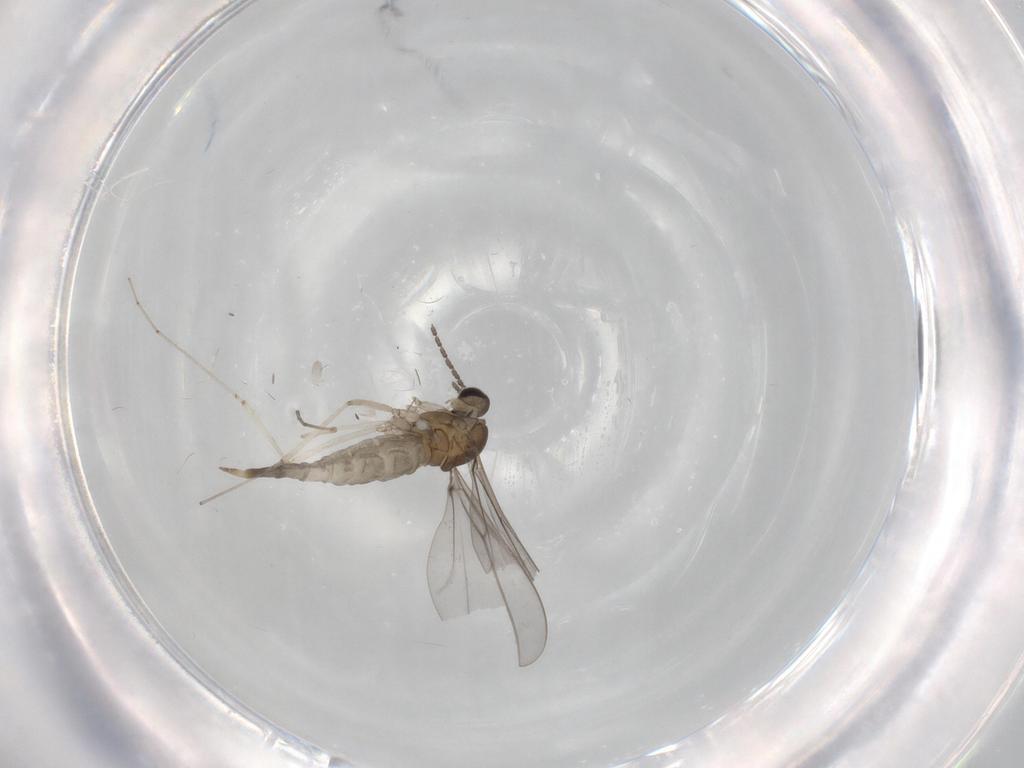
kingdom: Animalia
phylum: Arthropoda
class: Insecta
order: Diptera
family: Cecidomyiidae
